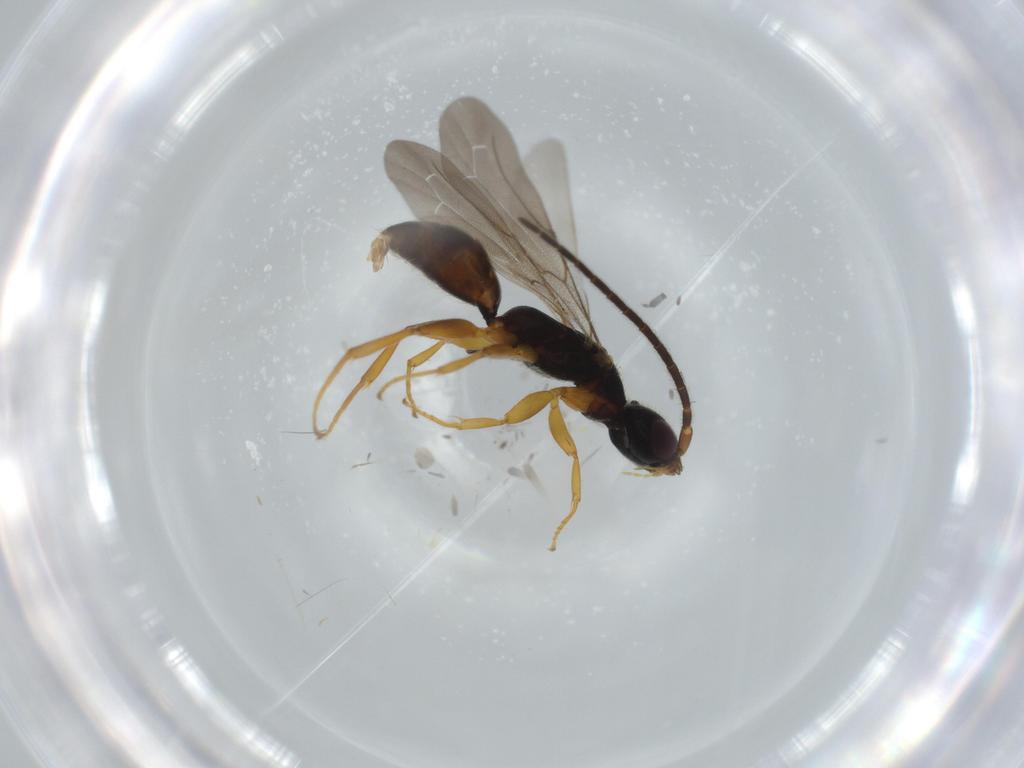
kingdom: Animalia
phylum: Arthropoda
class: Insecta
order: Hymenoptera
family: Bethylidae
